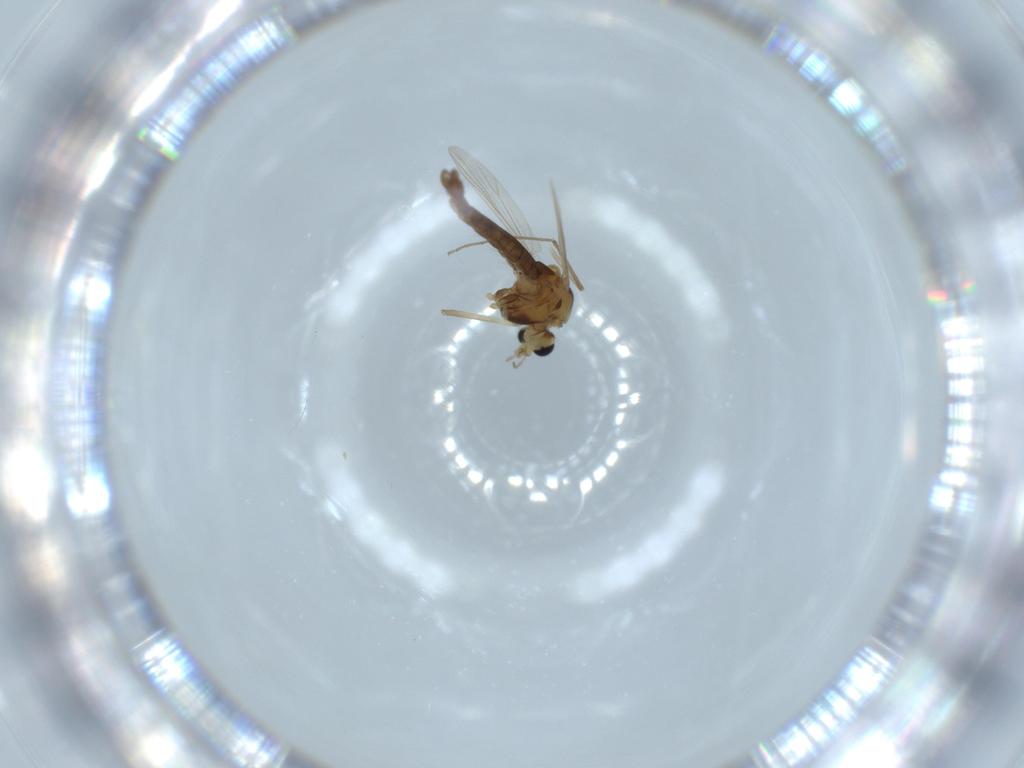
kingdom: Animalia
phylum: Arthropoda
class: Insecta
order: Diptera
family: Chironomidae
